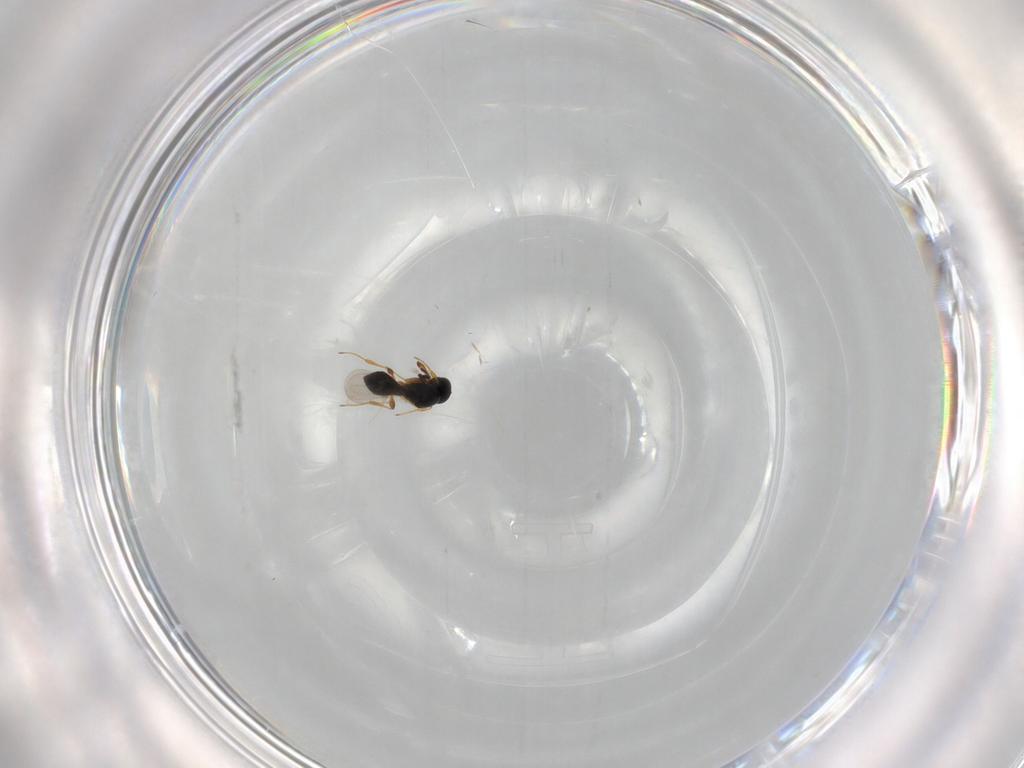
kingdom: Animalia
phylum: Arthropoda
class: Insecta
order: Hymenoptera
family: Platygastridae
